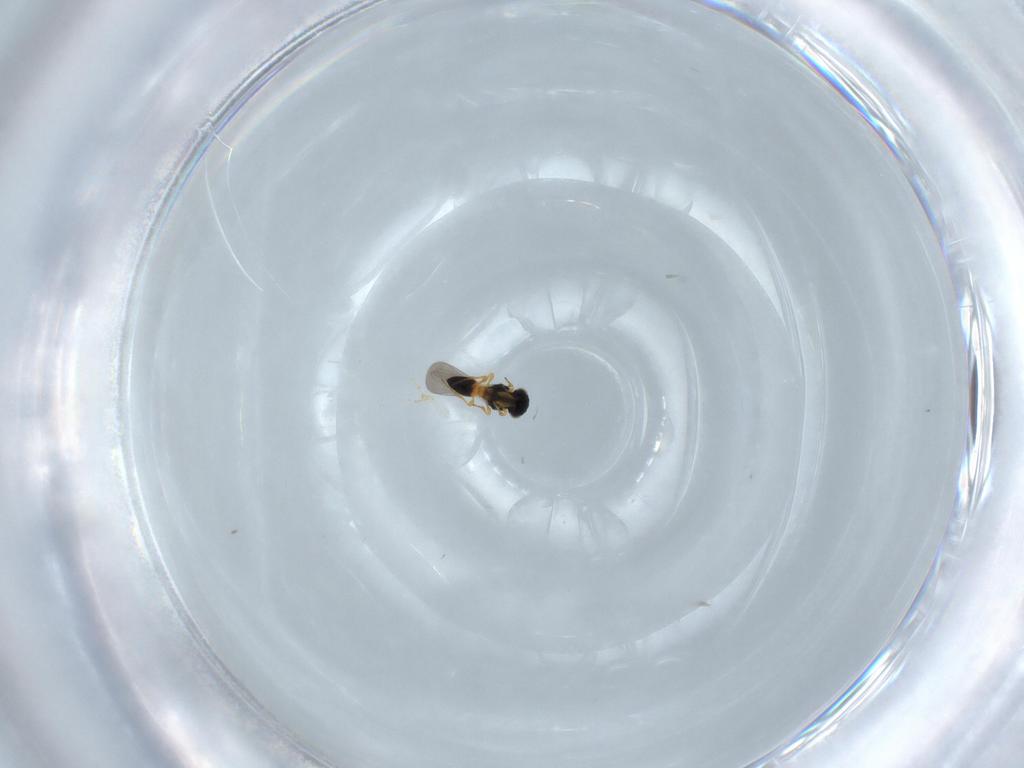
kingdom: Animalia
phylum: Arthropoda
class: Insecta
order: Hymenoptera
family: Platygastridae
